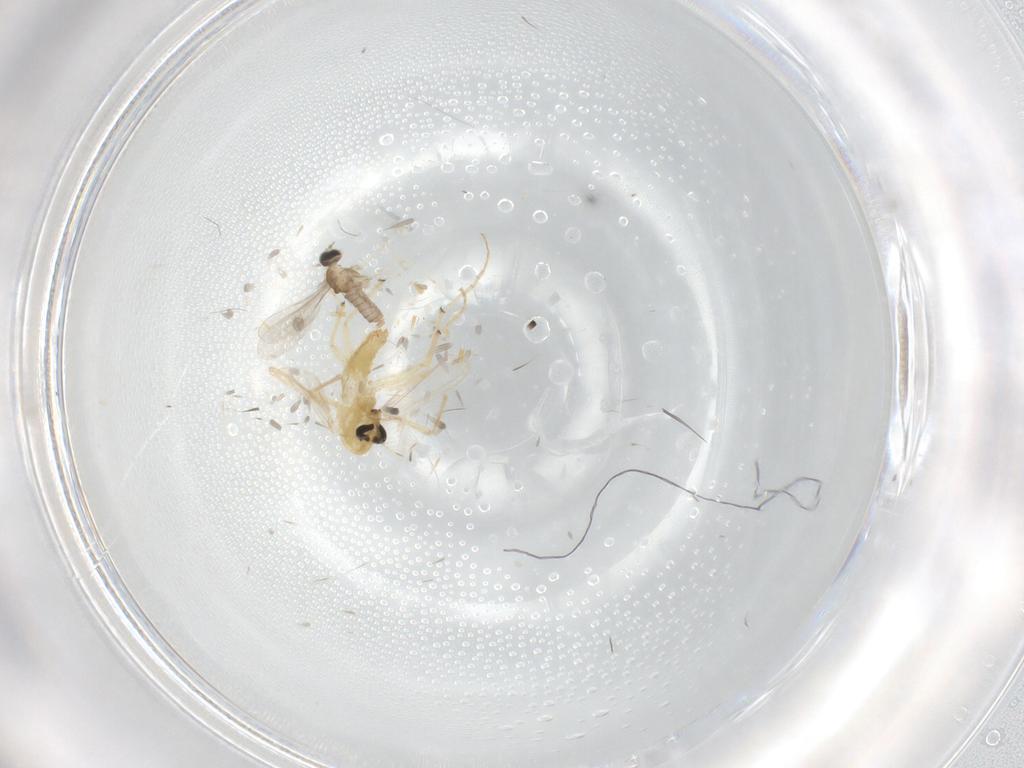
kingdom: Animalia
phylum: Arthropoda
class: Insecta
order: Diptera
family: Cecidomyiidae
